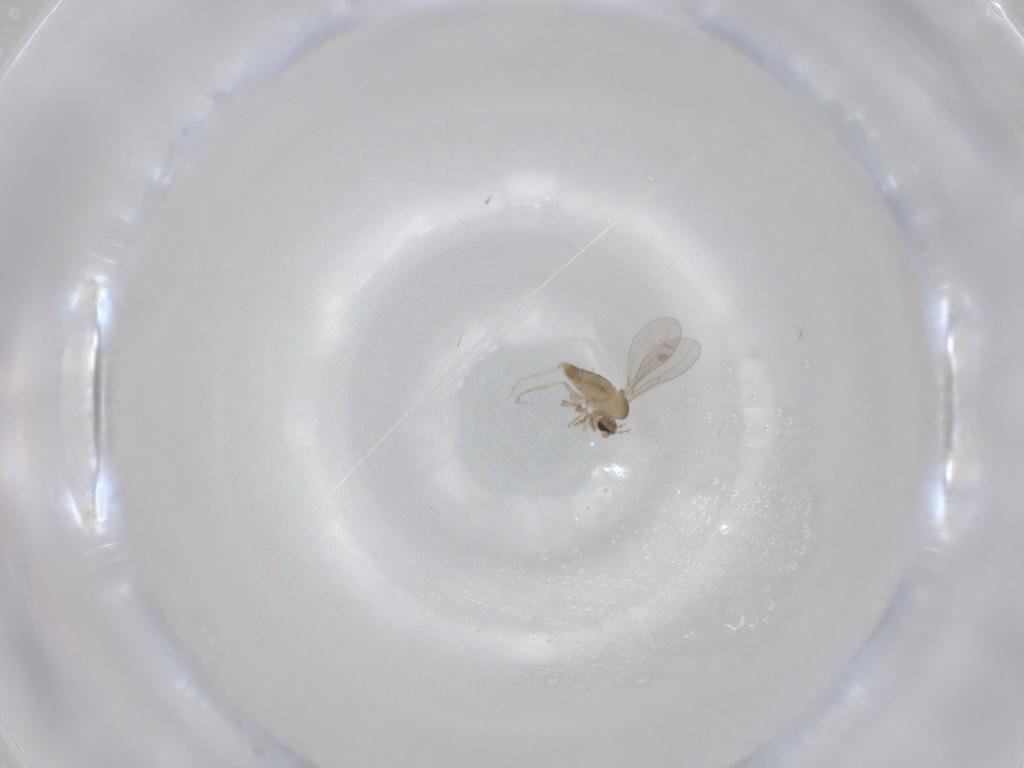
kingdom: Animalia
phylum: Arthropoda
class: Insecta
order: Diptera
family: Cecidomyiidae
